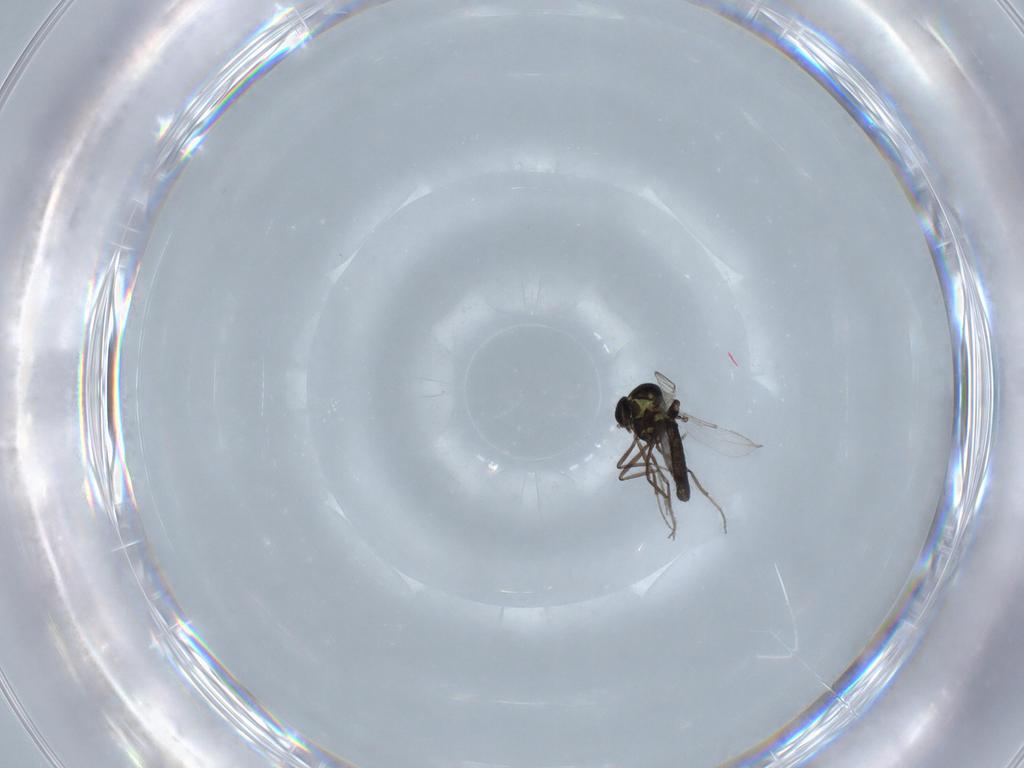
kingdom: Animalia
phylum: Arthropoda
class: Insecta
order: Diptera
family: Ceratopogonidae
